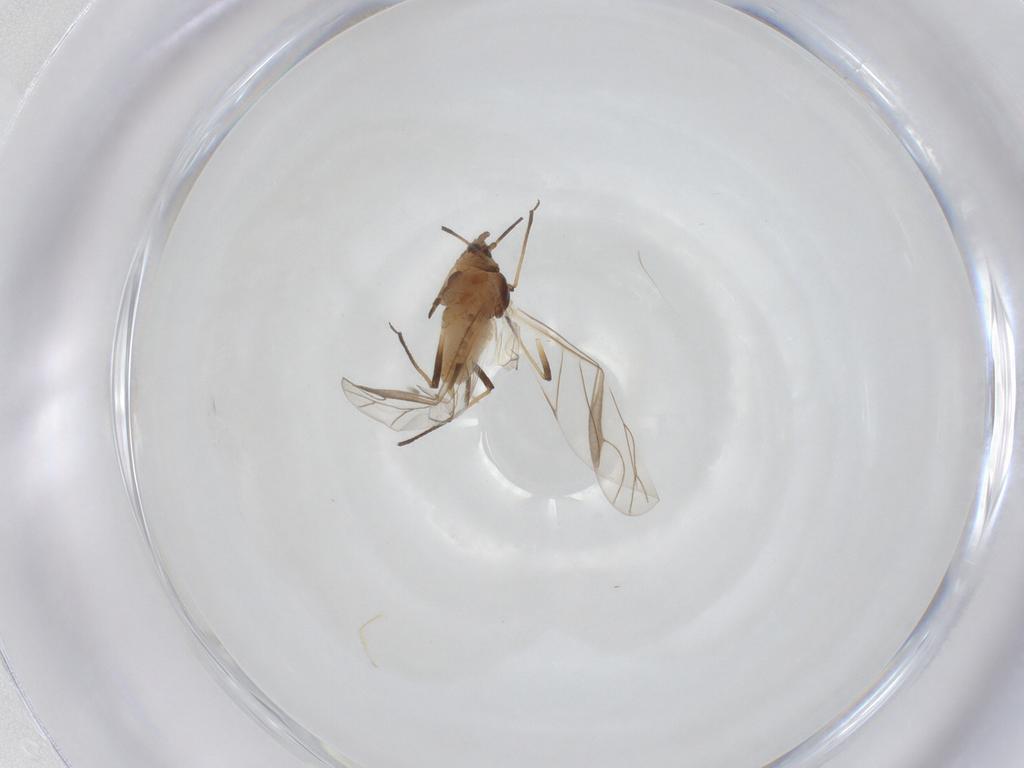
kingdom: Animalia
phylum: Arthropoda
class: Insecta
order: Hemiptera
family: Aphididae
